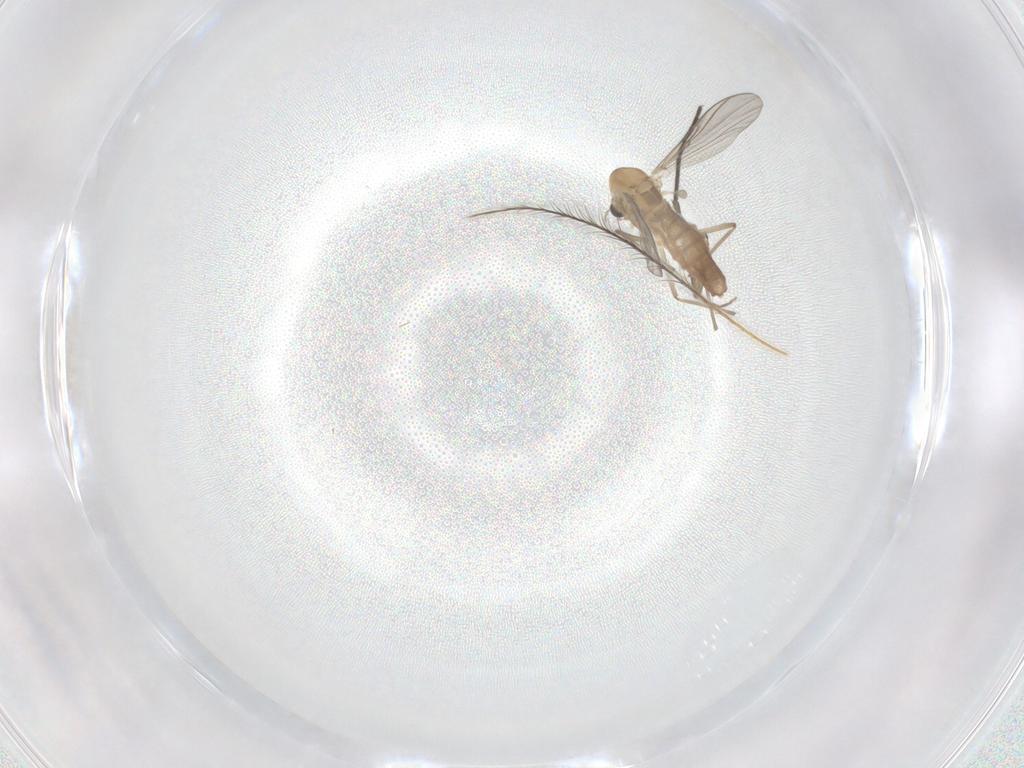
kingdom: Animalia
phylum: Arthropoda
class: Insecta
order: Diptera
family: Chironomidae
